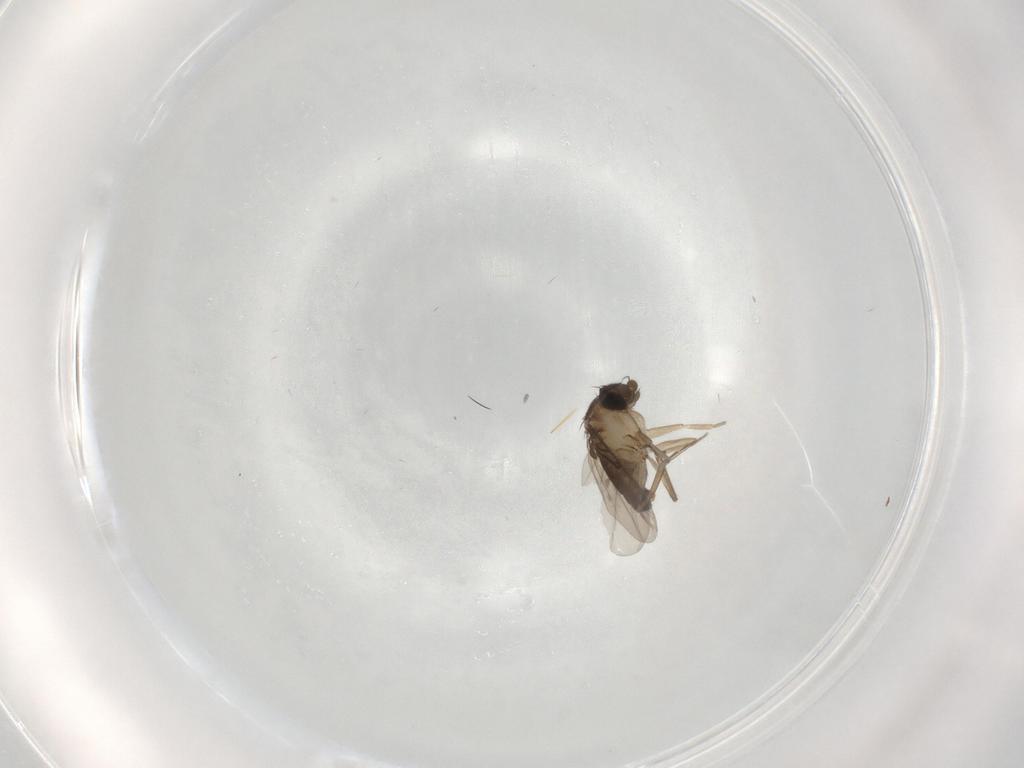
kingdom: Animalia
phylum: Arthropoda
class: Insecta
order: Diptera
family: Phoridae
